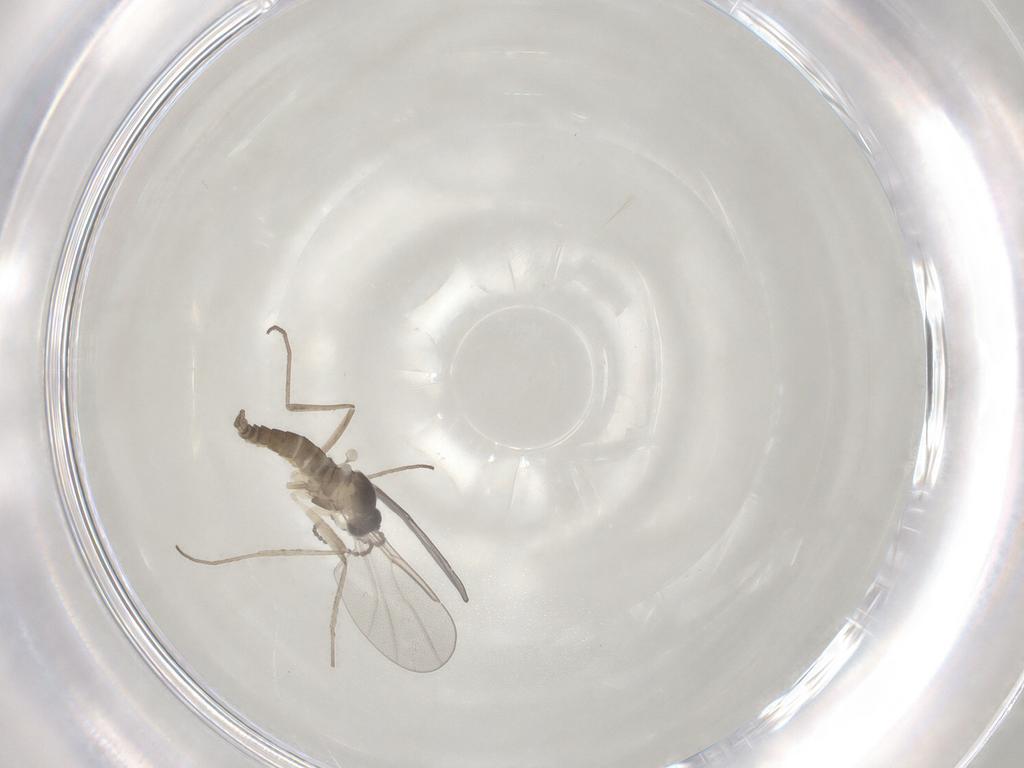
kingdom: Animalia
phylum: Arthropoda
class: Insecta
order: Diptera
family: Cecidomyiidae
